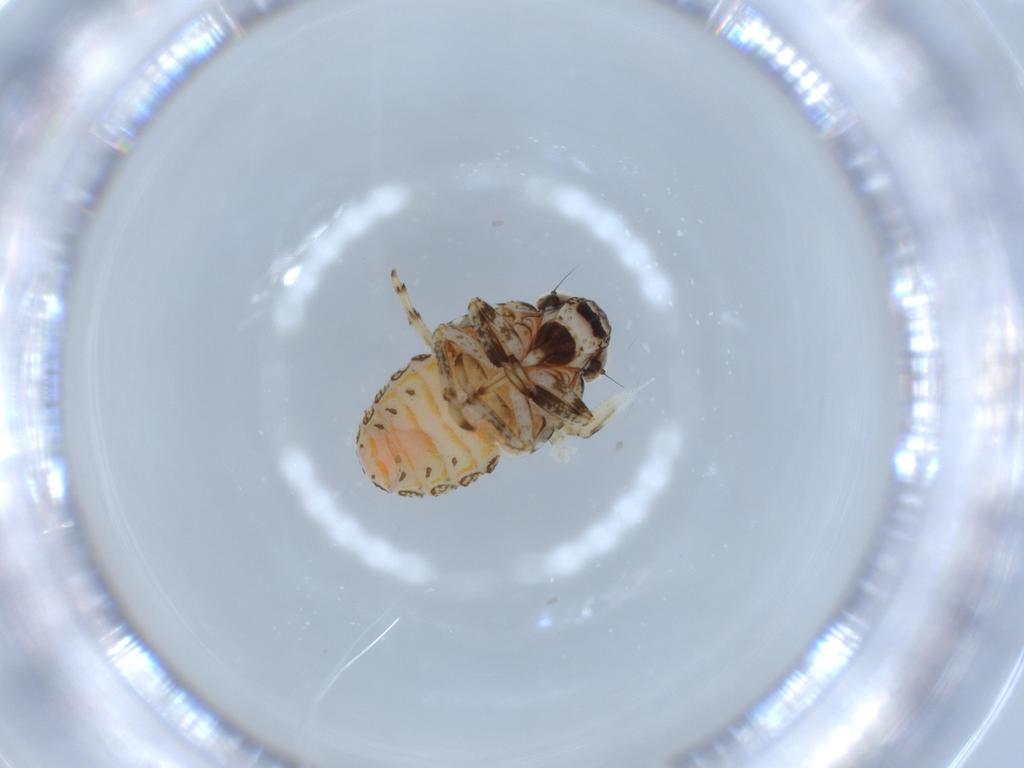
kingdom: Animalia
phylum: Arthropoda
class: Insecta
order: Hemiptera
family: Issidae
